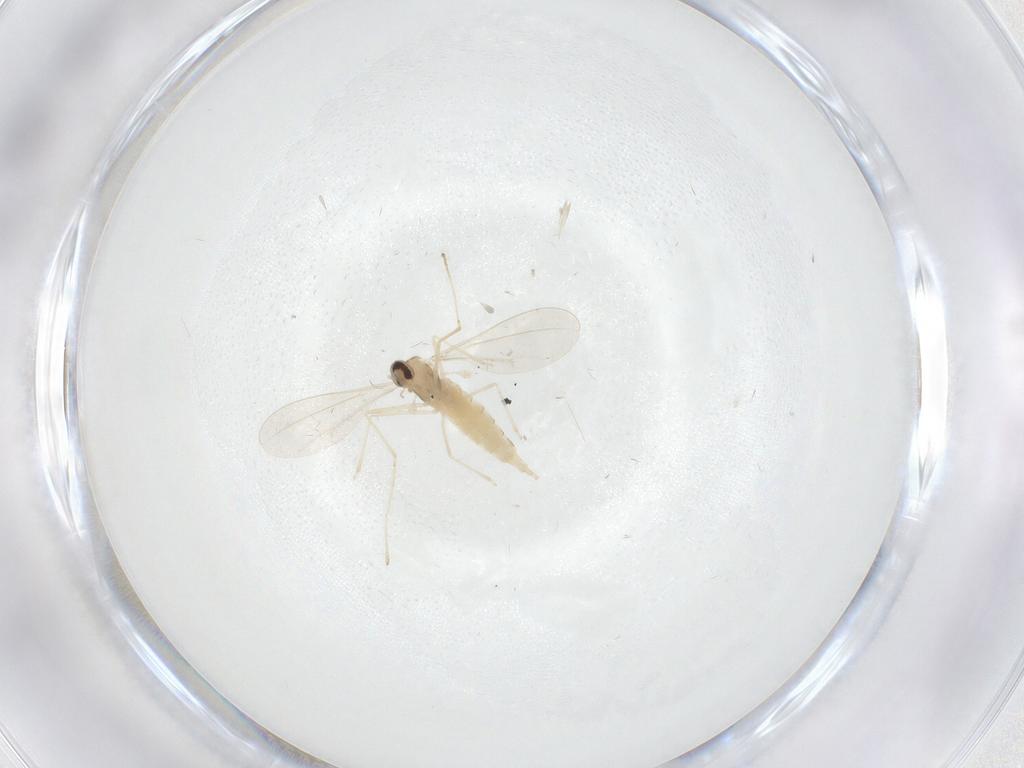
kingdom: Animalia
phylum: Arthropoda
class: Insecta
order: Diptera
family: Cecidomyiidae
